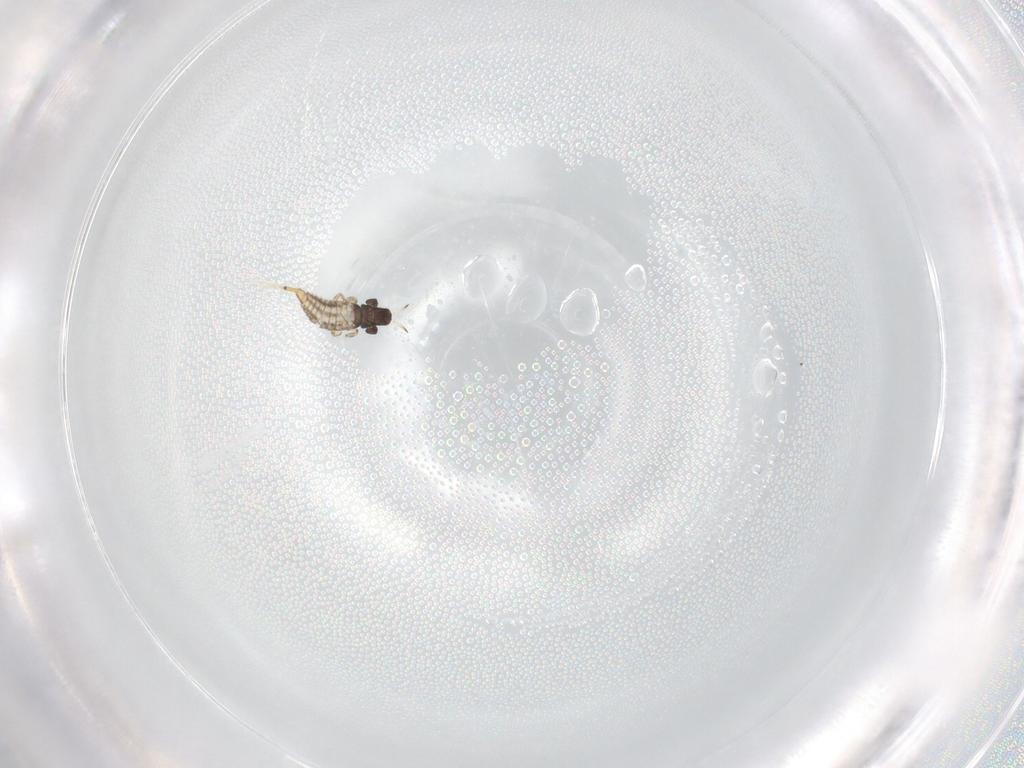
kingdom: Animalia
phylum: Arthropoda
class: Insecta
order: Thysanoptera
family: Phlaeothripidae
